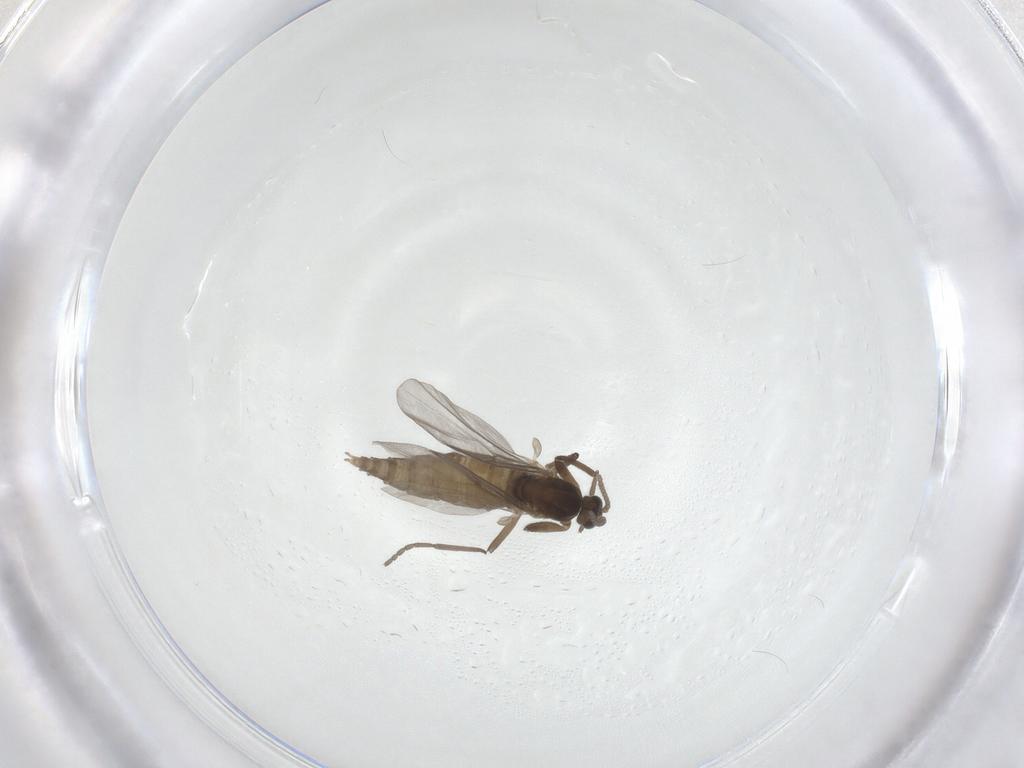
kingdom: Animalia
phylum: Arthropoda
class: Insecta
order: Diptera
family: Cecidomyiidae
